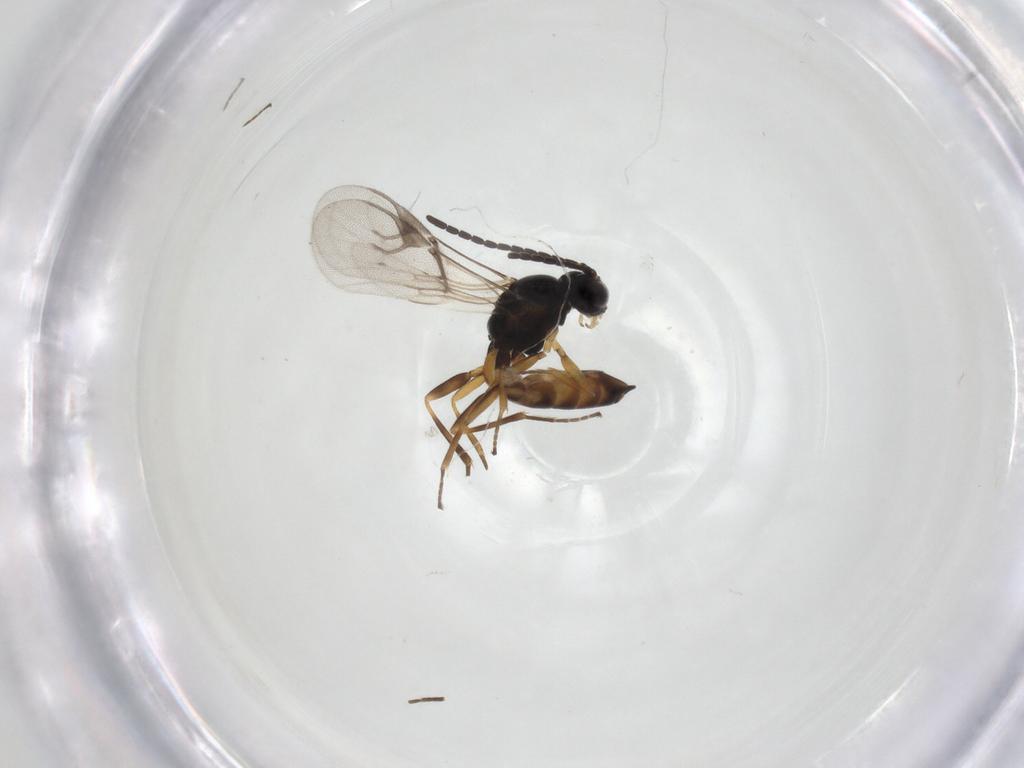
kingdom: Animalia
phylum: Arthropoda
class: Insecta
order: Hymenoptera
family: Braconidae
